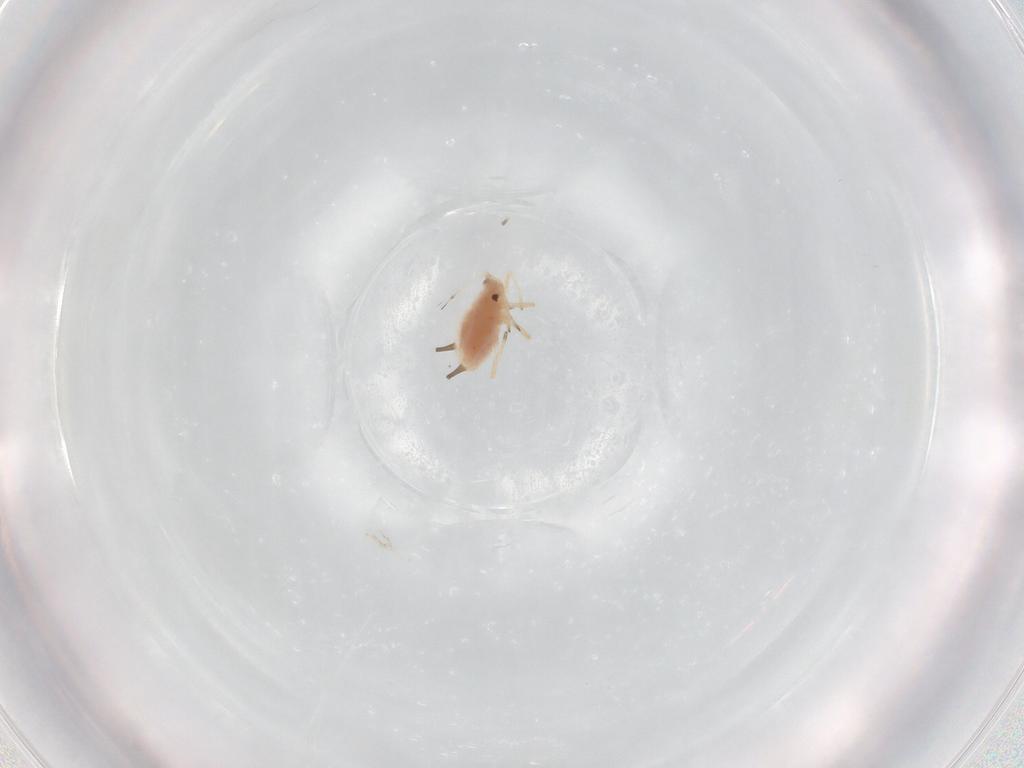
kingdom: Animalia
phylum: Arthropoda
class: Insecta
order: Hemiptera
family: Aphididae
